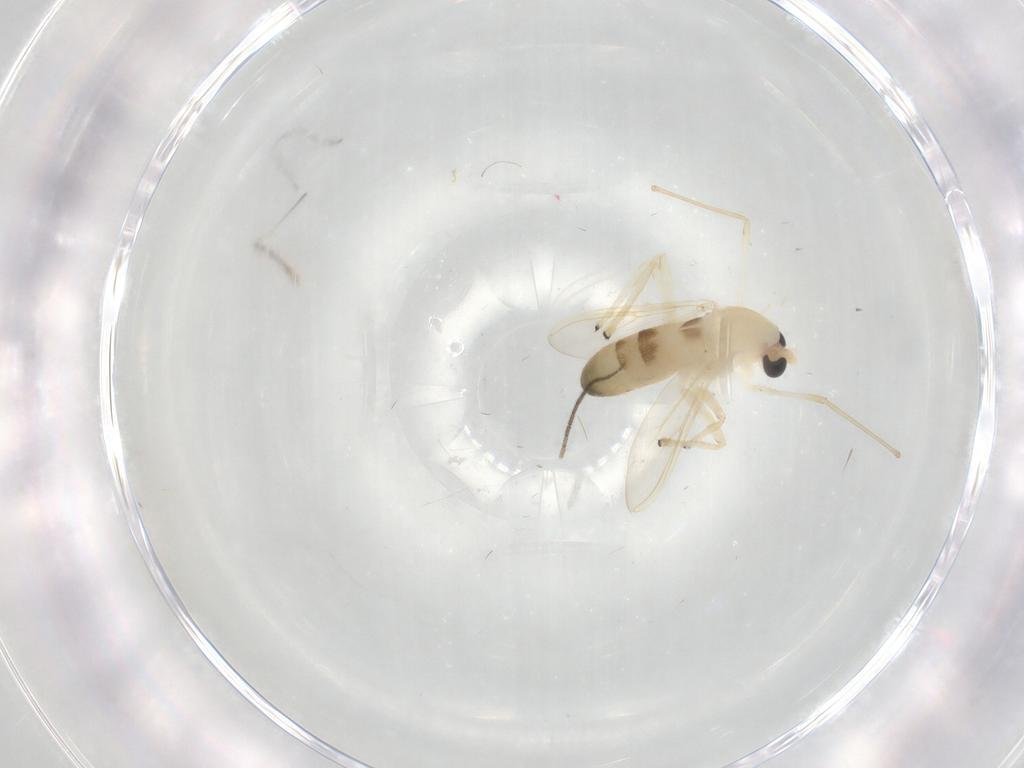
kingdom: Animalia
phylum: Arthropoda
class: Insecta
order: Diptera
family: Chironomidae
